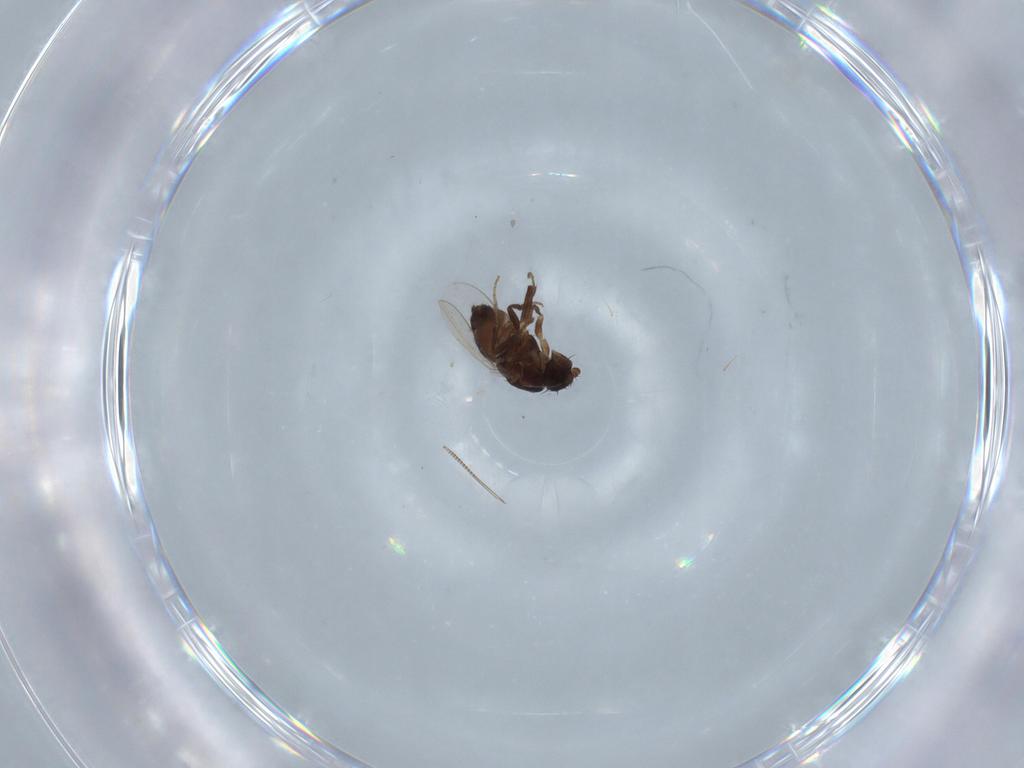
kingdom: Animalia
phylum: Arthropoda
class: Insecta
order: Diptera
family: Sphaeroceridae
